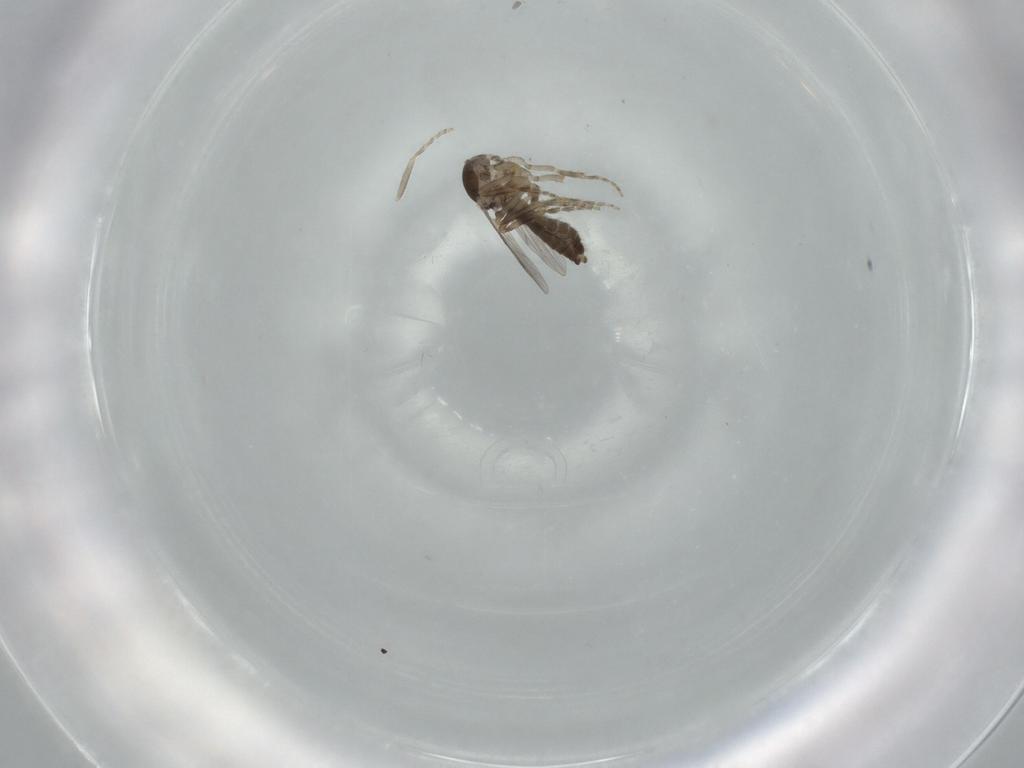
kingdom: Animalia
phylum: Arthropoda
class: Insecta
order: Diptera
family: Ceratopogonidae
